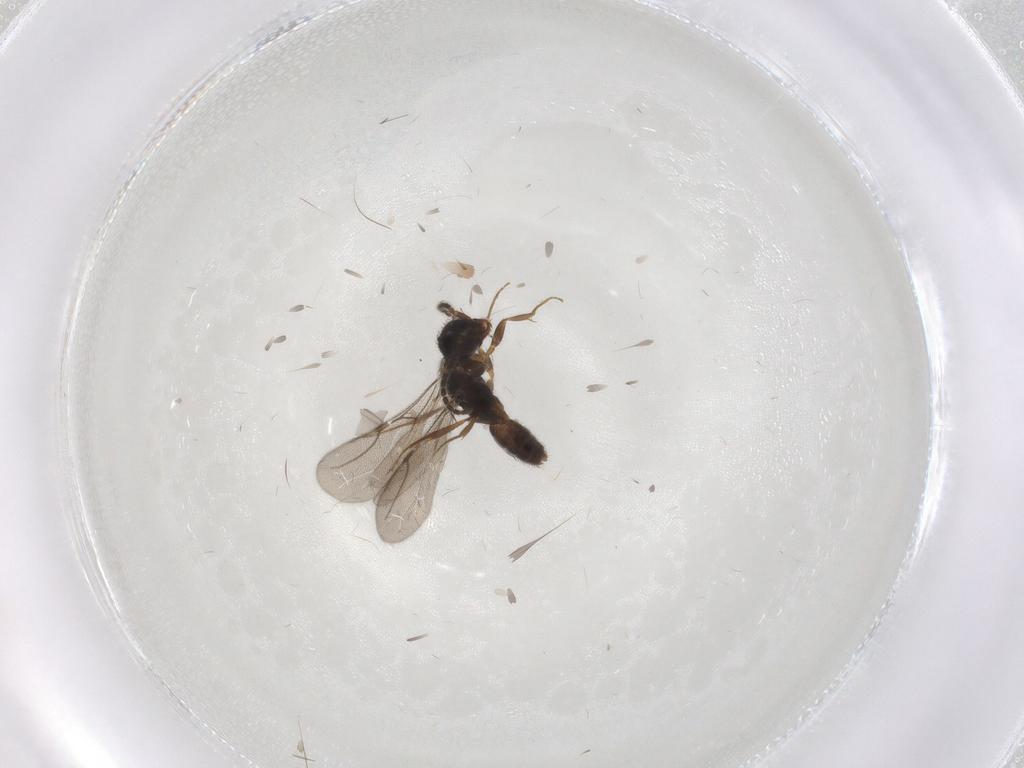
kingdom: Animalia
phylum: Arthropoda
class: Insecta
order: Hymenoptera
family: Bethylidae
